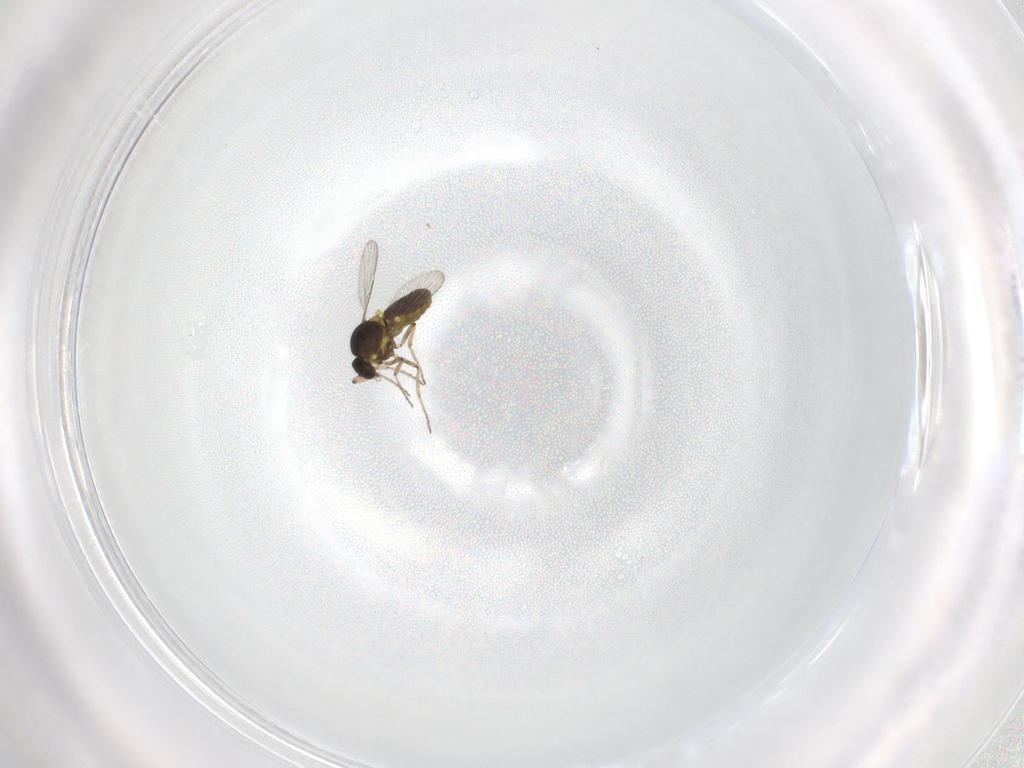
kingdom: Animalia
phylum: Arthropoda
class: Insecta
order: Diptera
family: Ceratopogonidae
